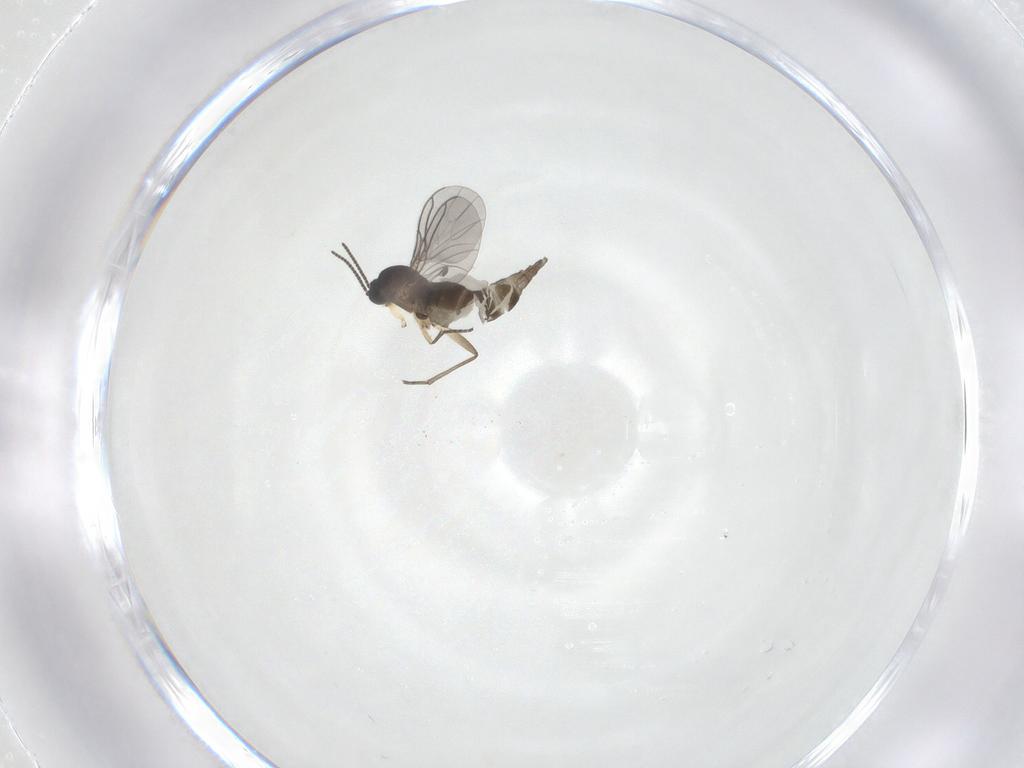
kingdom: Animalia
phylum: Arthropoda
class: Insecta
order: Diptera
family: Sciaridae
